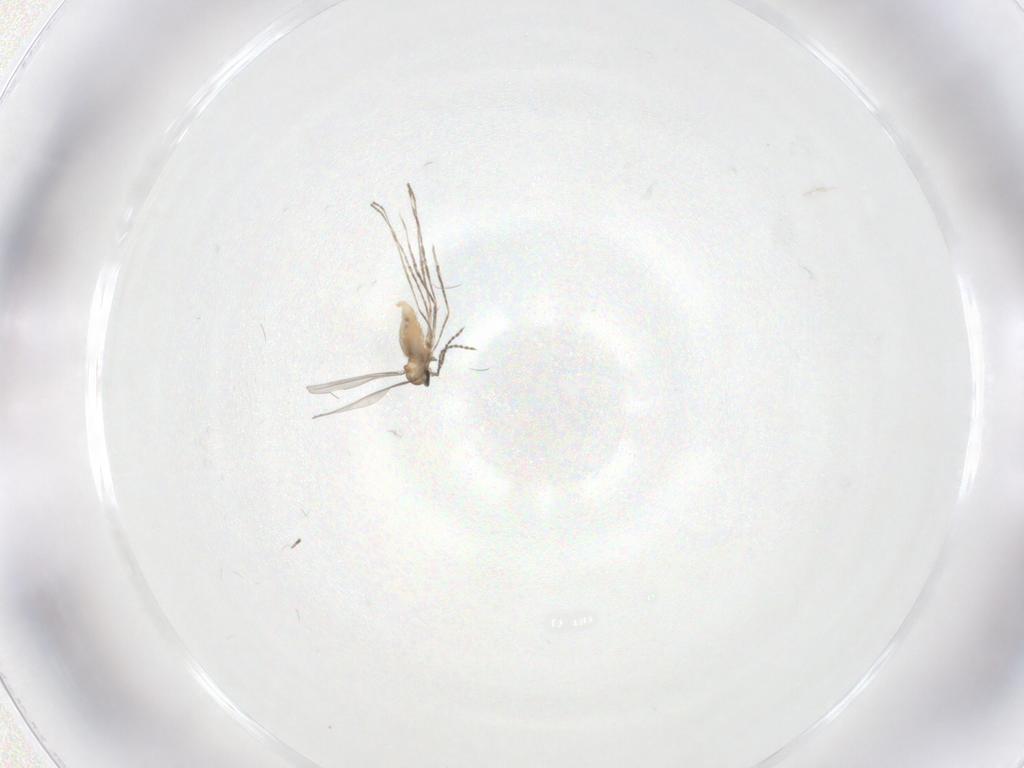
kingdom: Animalia
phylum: Arthropoda
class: Insecta
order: Diptera
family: Cecidomyiidae
